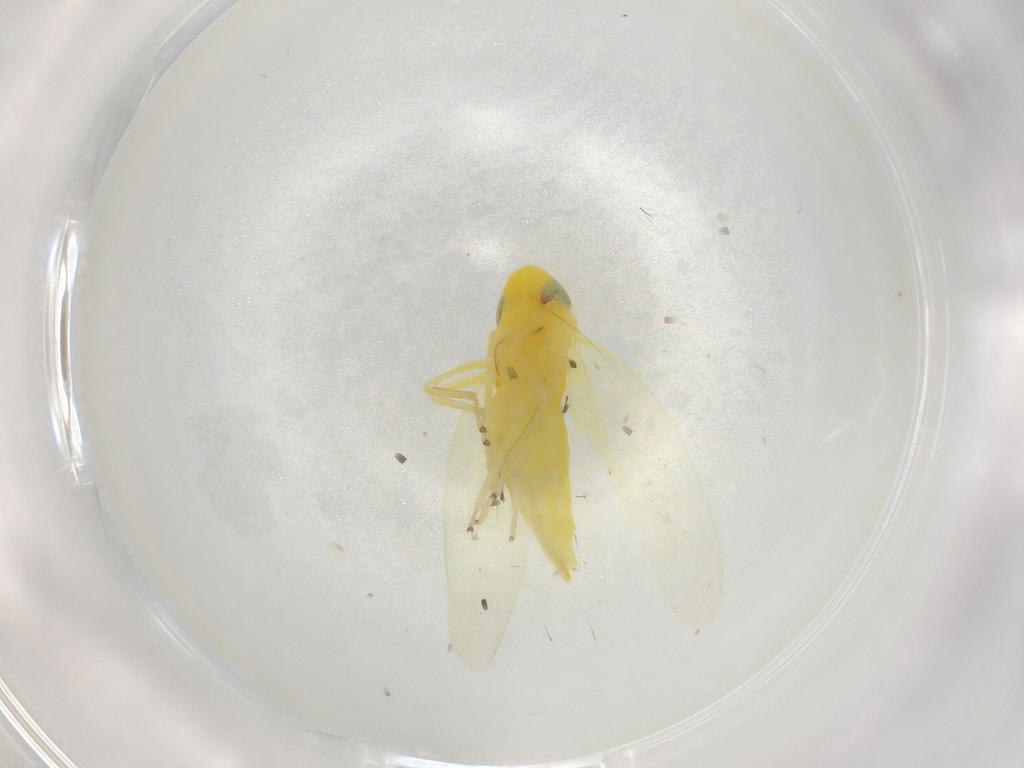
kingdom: Animalia
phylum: Arthropoda
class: Insecta
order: Hemiptera
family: Cicadellidae
